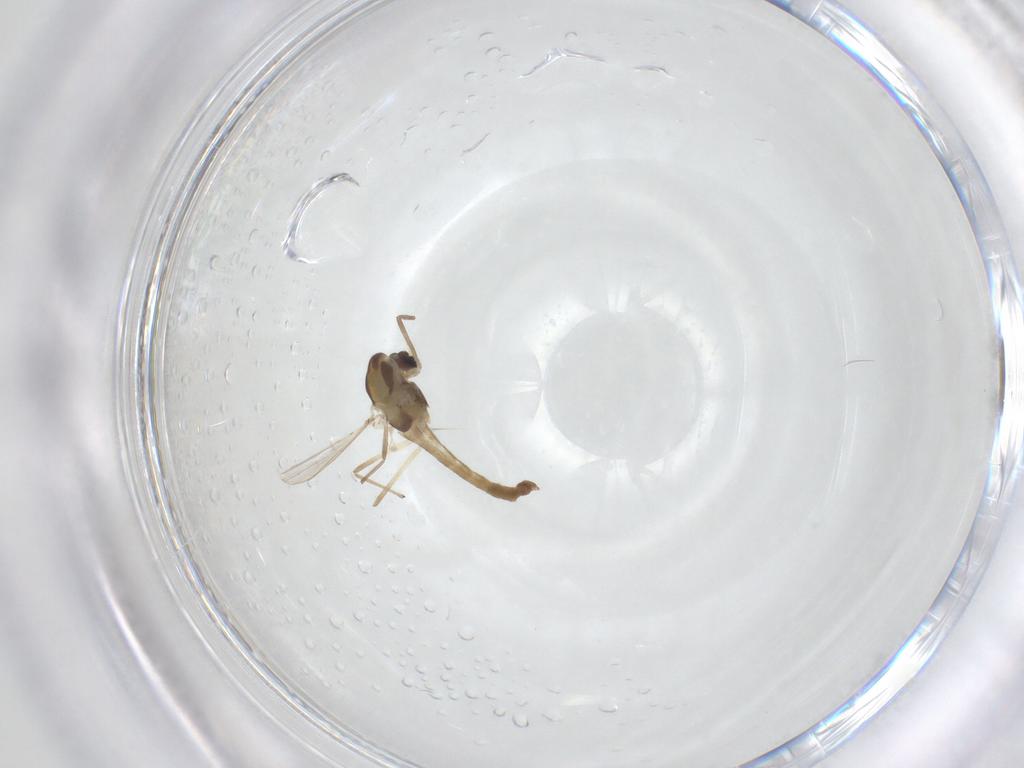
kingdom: Animalia
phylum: Arthropoda
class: Insecta
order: Diptera
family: Chironomidae
